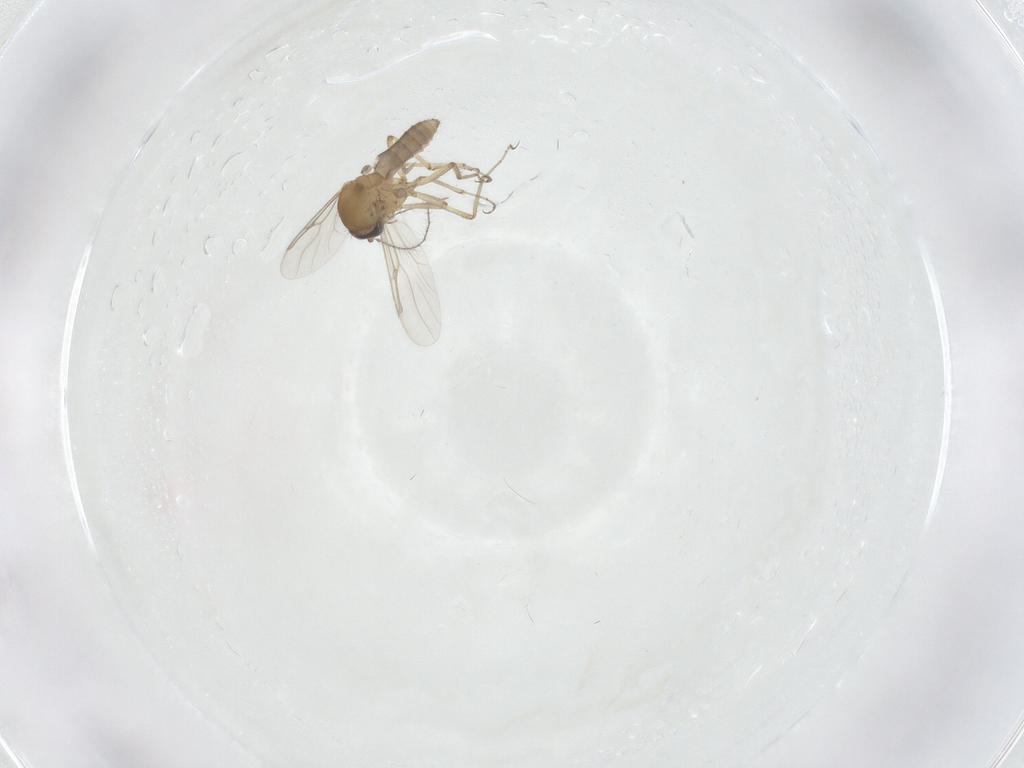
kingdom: Animalia
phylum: Arthropoda
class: Insecta
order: Diptera
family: Ceratopogonidae
